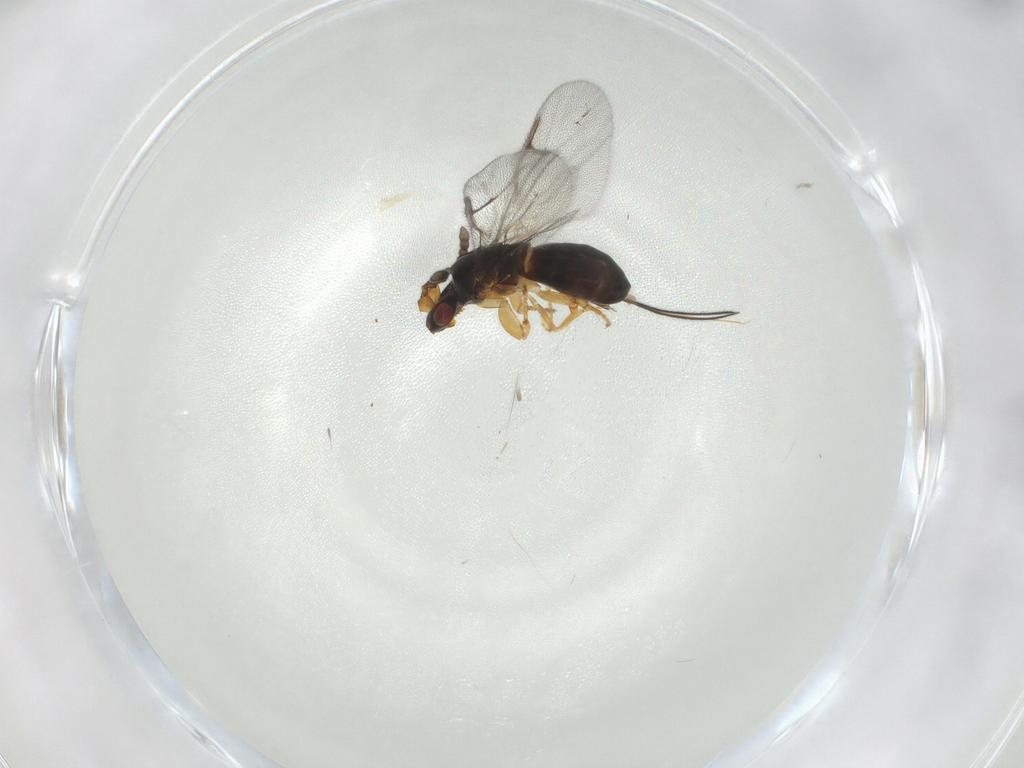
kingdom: Animalia
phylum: Arthropoda
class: Insecta
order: Hymenoptera
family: Agaonidae
